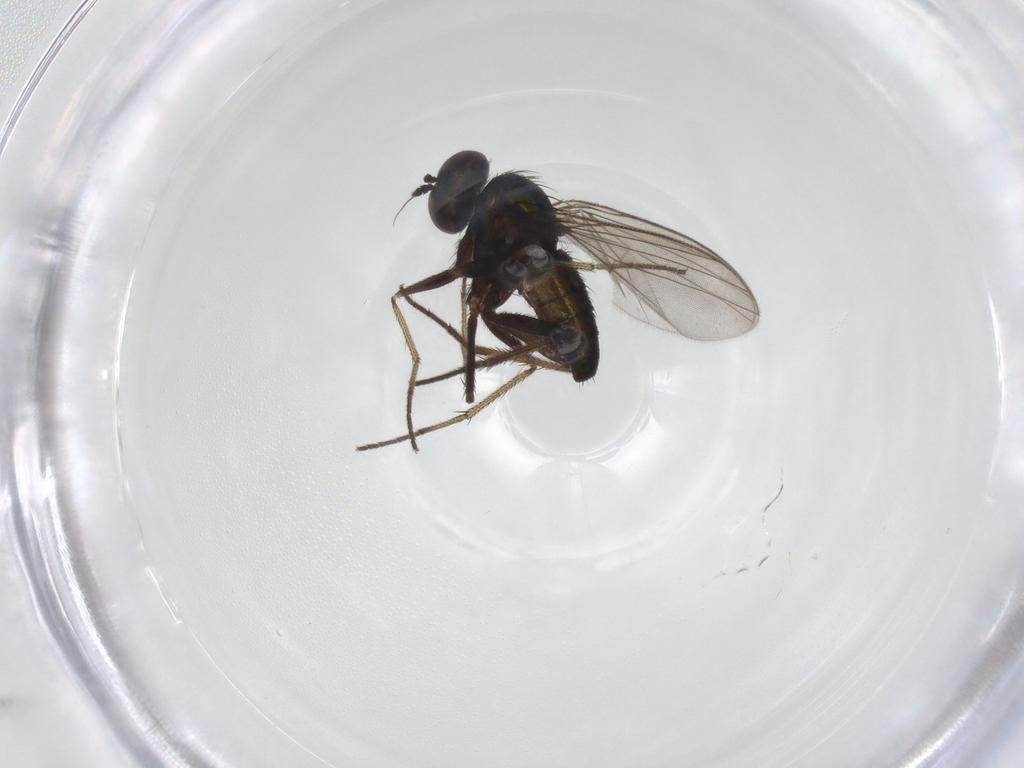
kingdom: Animalia
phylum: Arthropoda
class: Insecta
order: Diptera
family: Dolichopodidae
